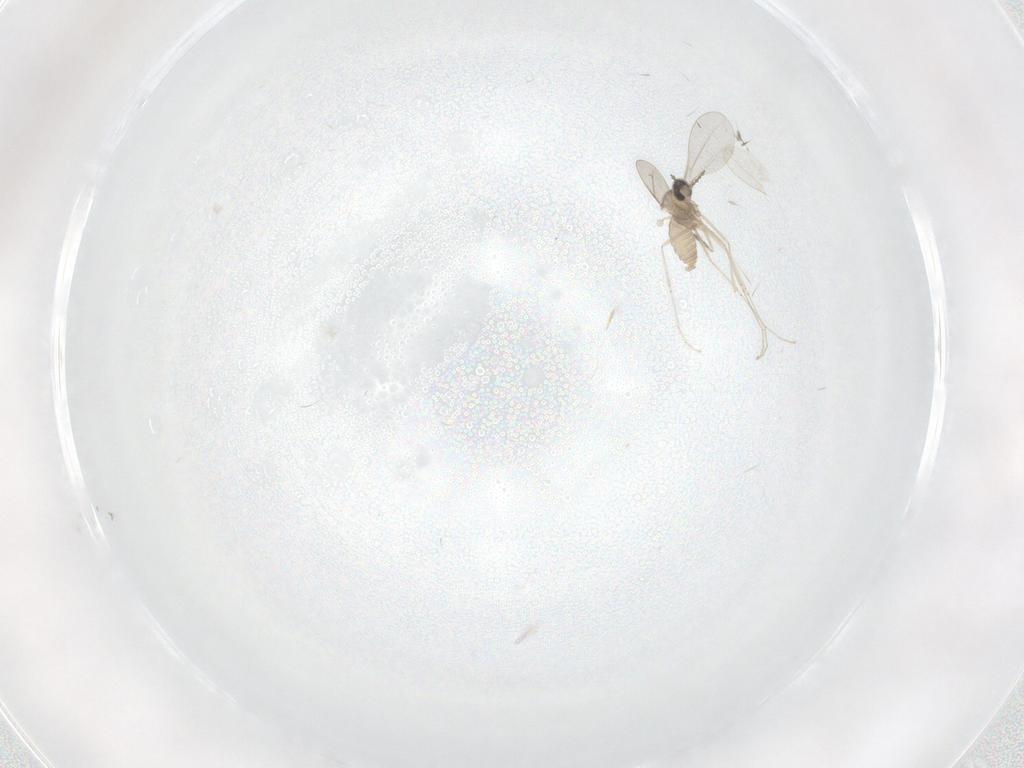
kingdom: Animalia
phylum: Arthropoda
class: Insecta
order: Diptera
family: Cecidomyiidae
